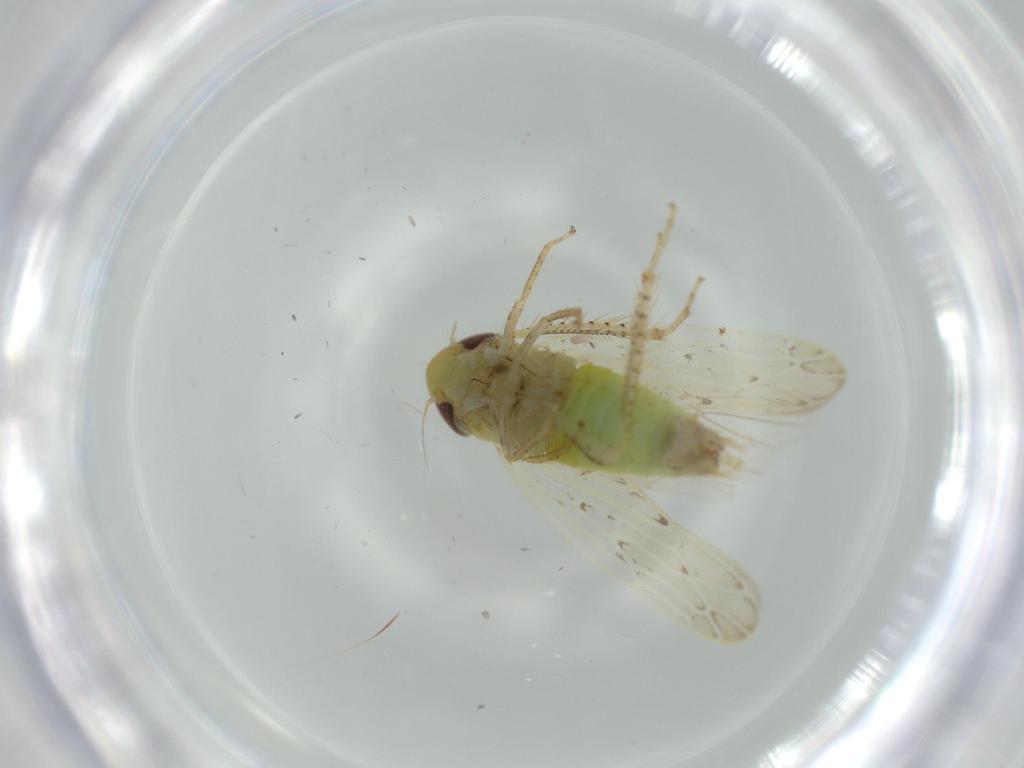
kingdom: Animalia
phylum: Arthropoda
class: Insecta
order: Hemiptera
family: Cicadellidae
